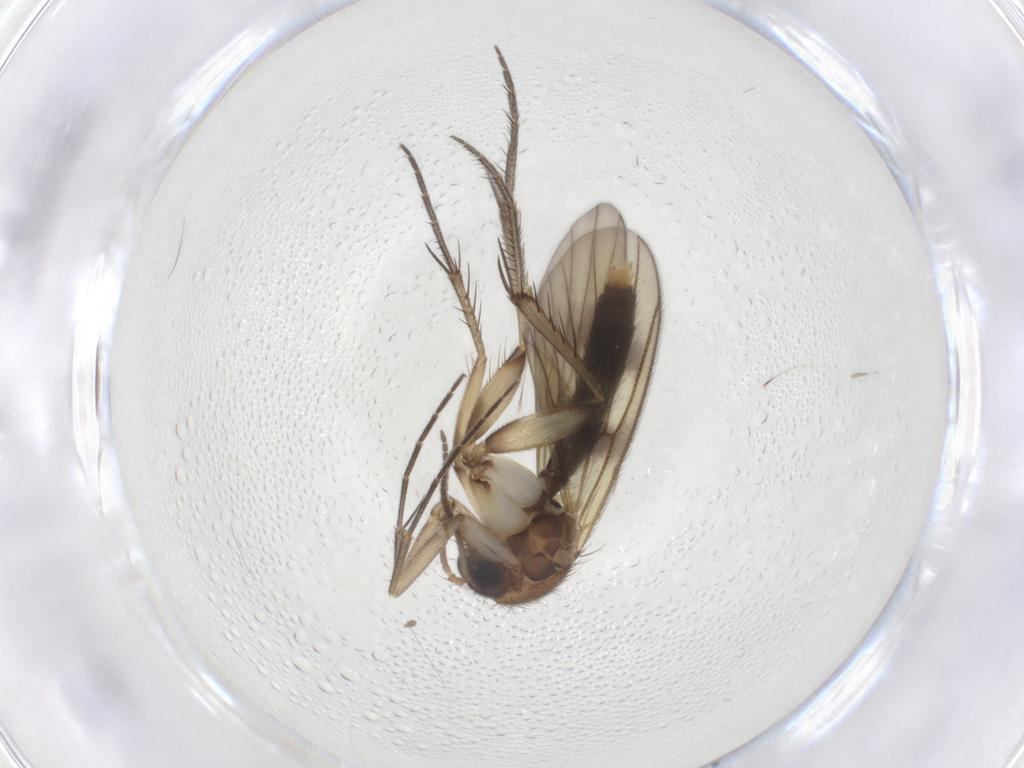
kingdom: Animalia
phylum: Arthropoda
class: Insecta
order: Diptera
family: Mycetophilidae
